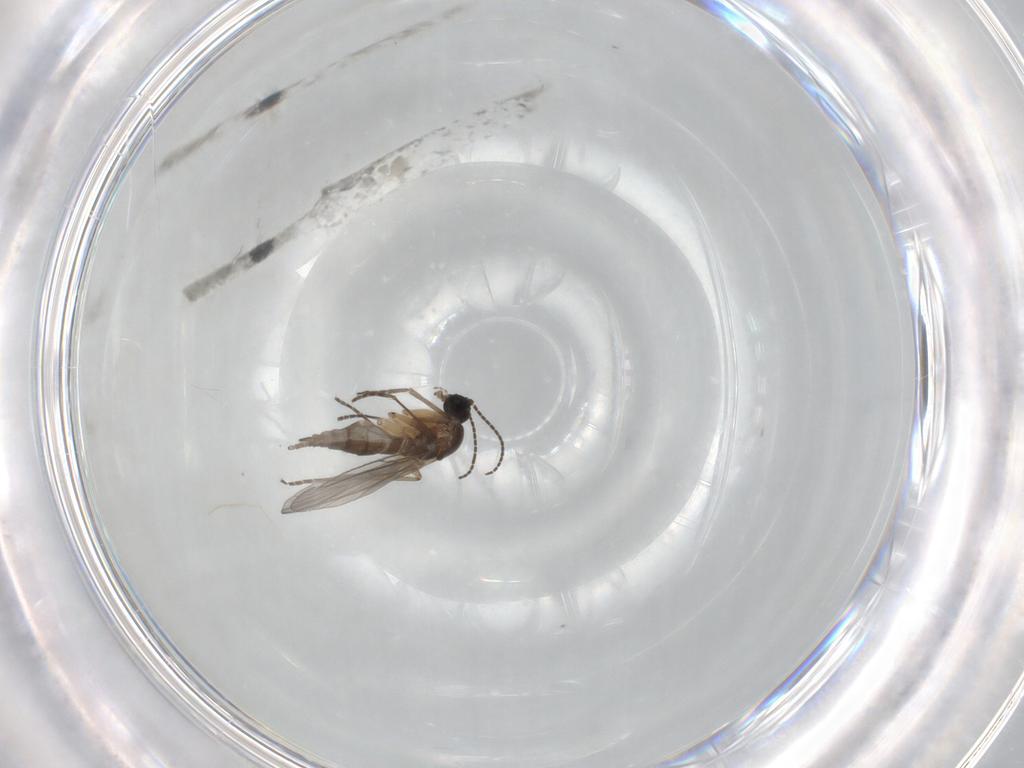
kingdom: Animalia
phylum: Arthropoda
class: Insecta
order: Diptera
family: Sciaridae
